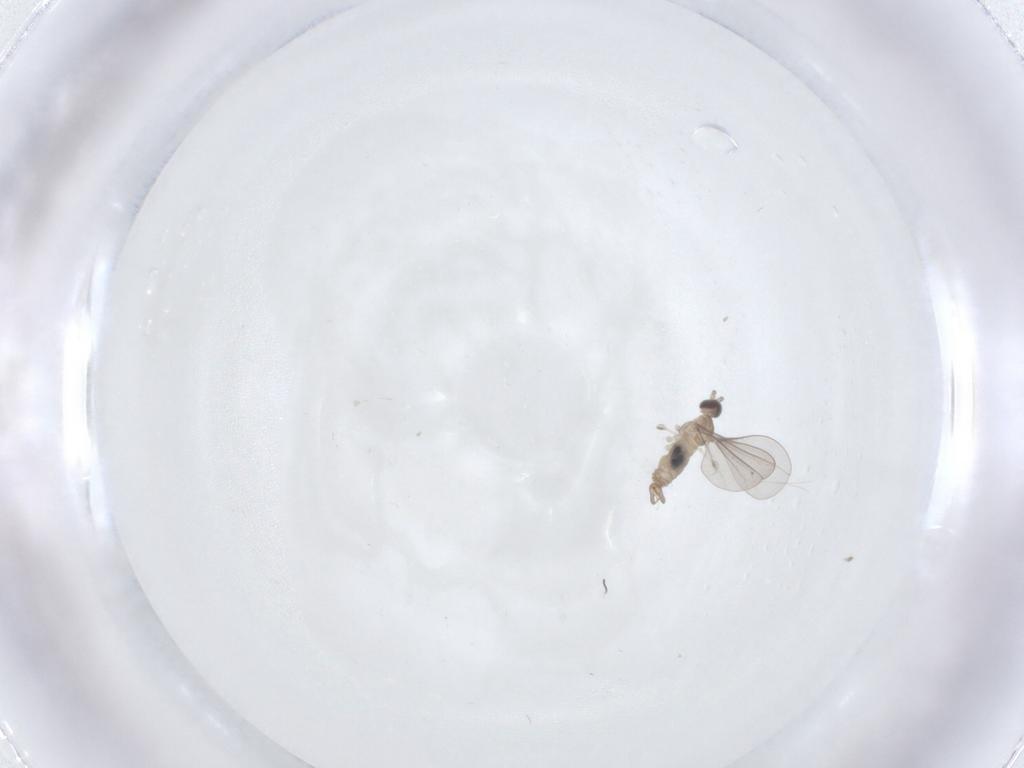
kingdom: Animalia
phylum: Arthropoda
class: Insecta
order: Diptera
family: Cecidomyiidae
